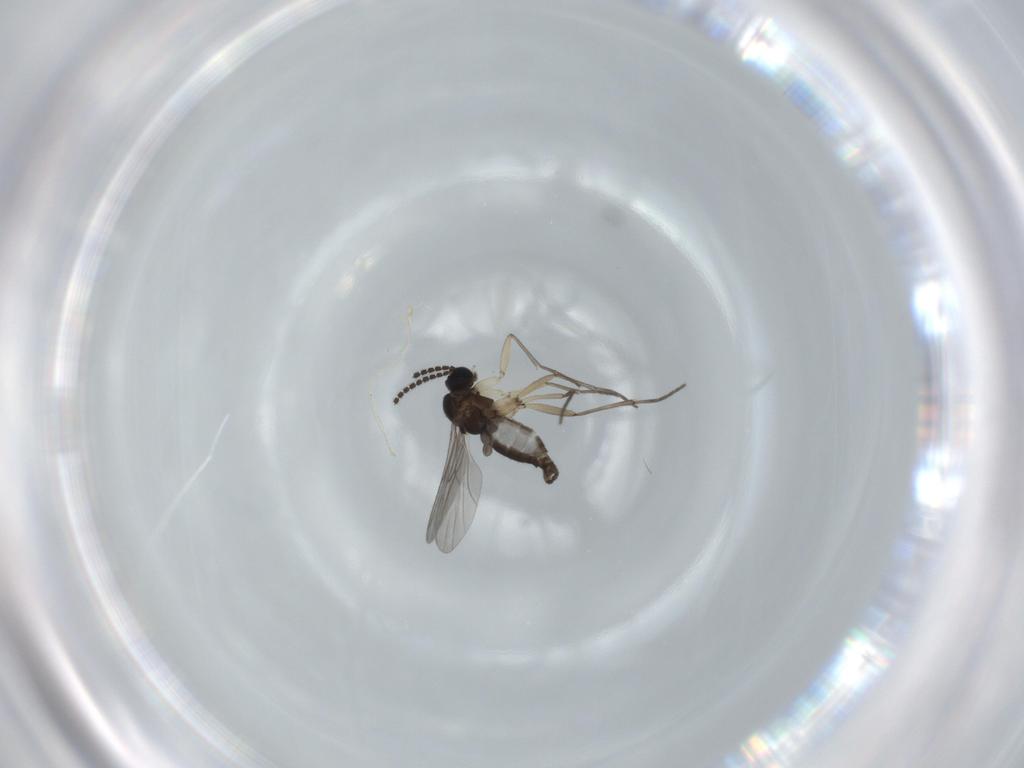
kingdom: Animalia
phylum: Arthropoda
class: Insecta
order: Diptera
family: Sciaridae
